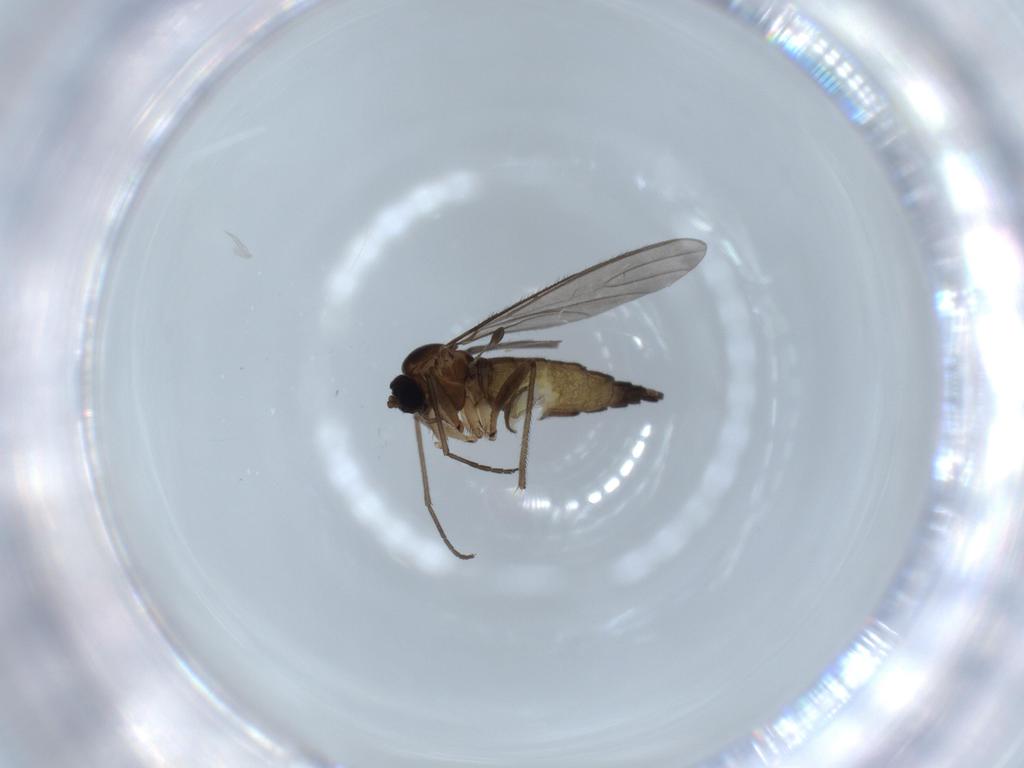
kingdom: Animalia
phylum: Arthropoda
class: Insecta
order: Diptera
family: Sciaridae
